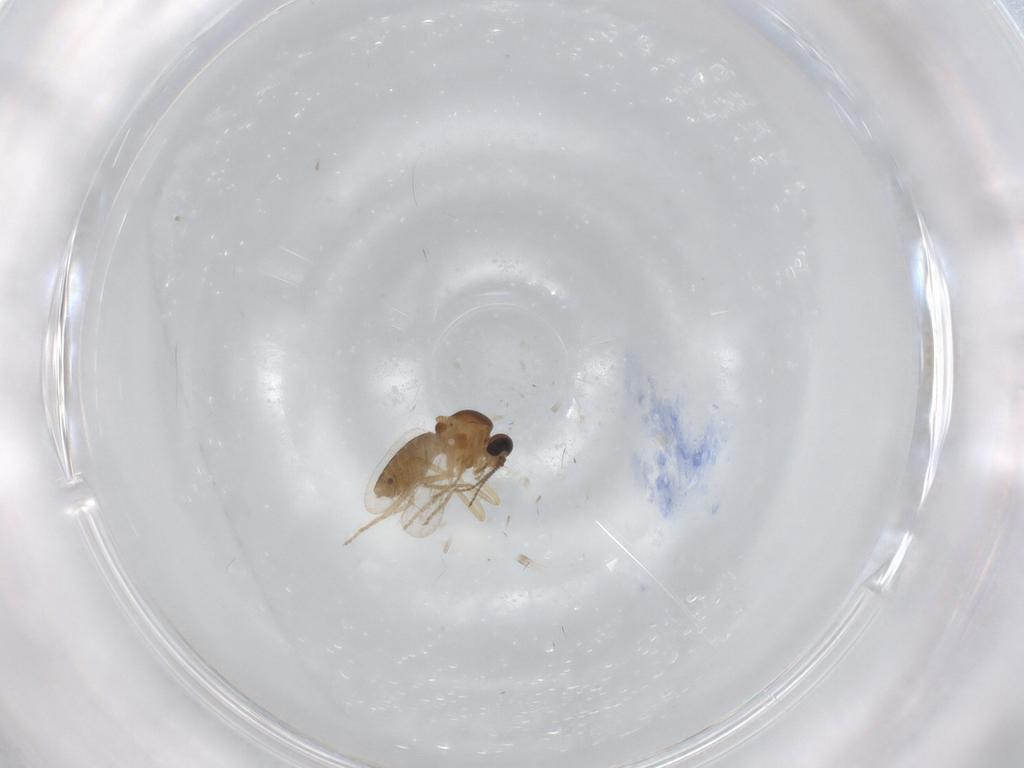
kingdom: Animalia
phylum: Arthropoda
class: Insecta
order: Diptera
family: Ceratopogonidae
